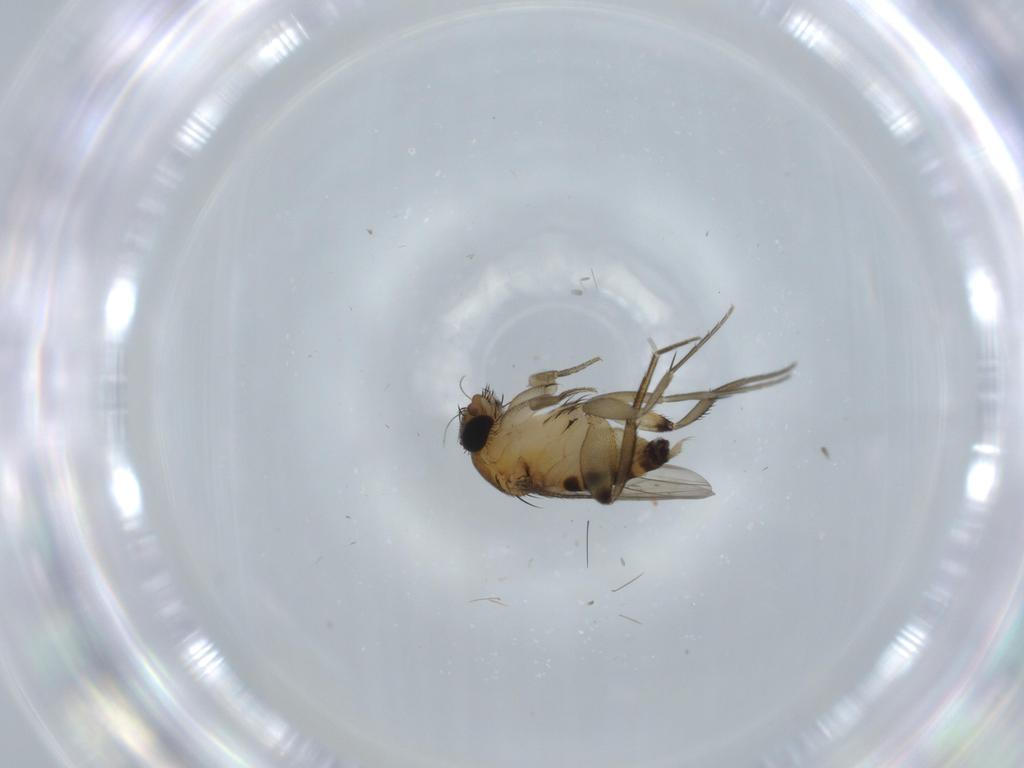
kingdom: Animalia
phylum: Arthropoda
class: Insecta
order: Diptera
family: Phoridae
